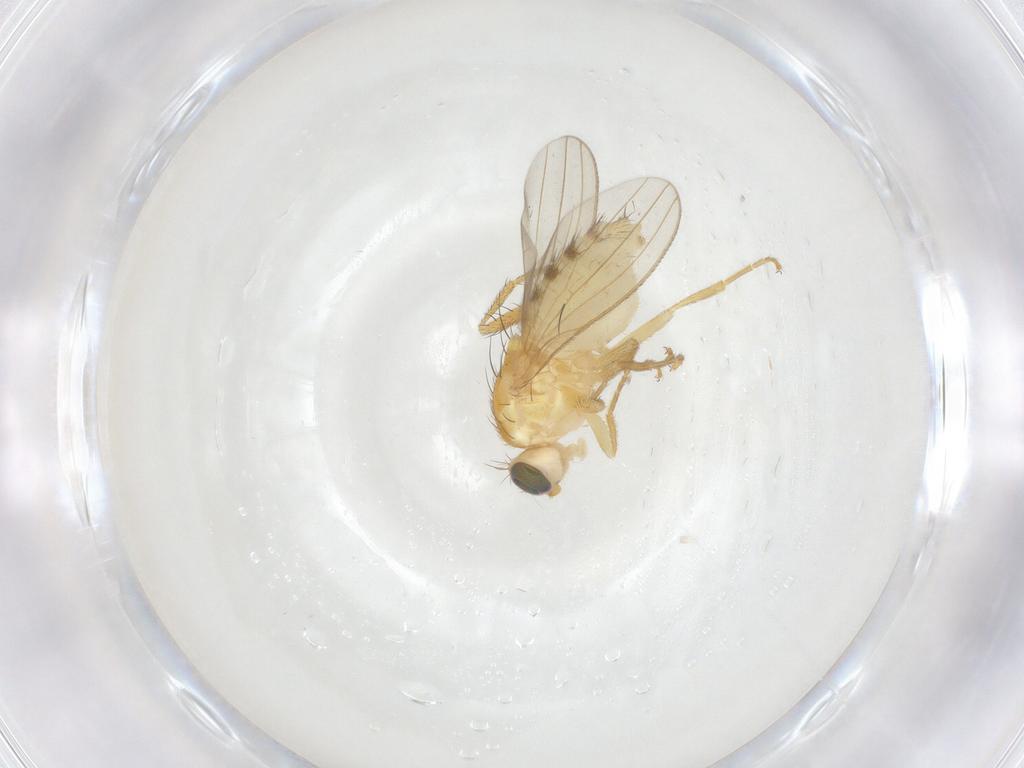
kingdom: Animalia
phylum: Arthropoda
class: Insecta
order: Diptera
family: Chyromyidae
